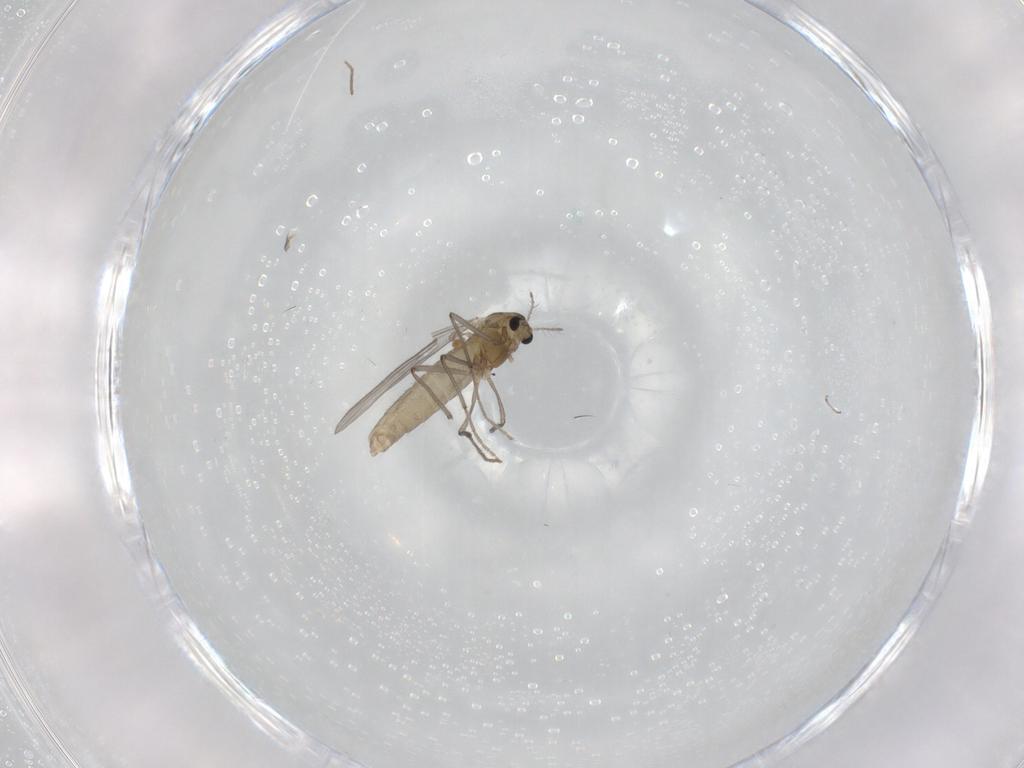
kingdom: Animalia
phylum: Arthropoda
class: Insecta
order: Diptera
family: Chironomidae
